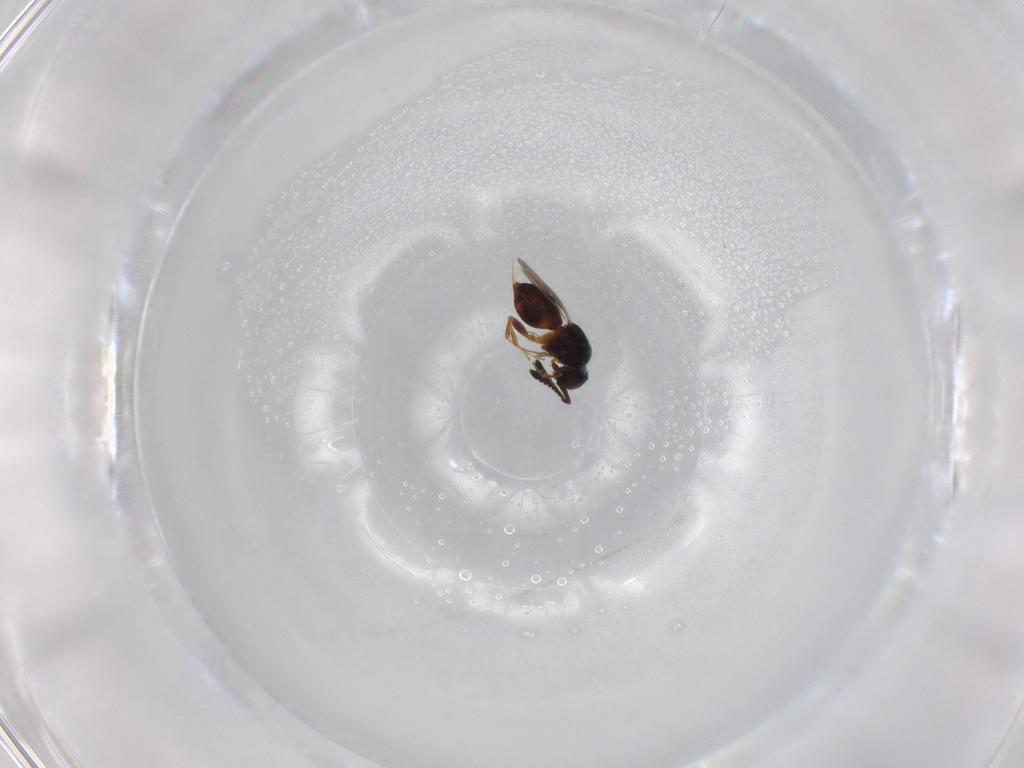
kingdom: Animalia
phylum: Arthropoda
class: Insecta
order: Hymenoptera
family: Ceraphronidae
